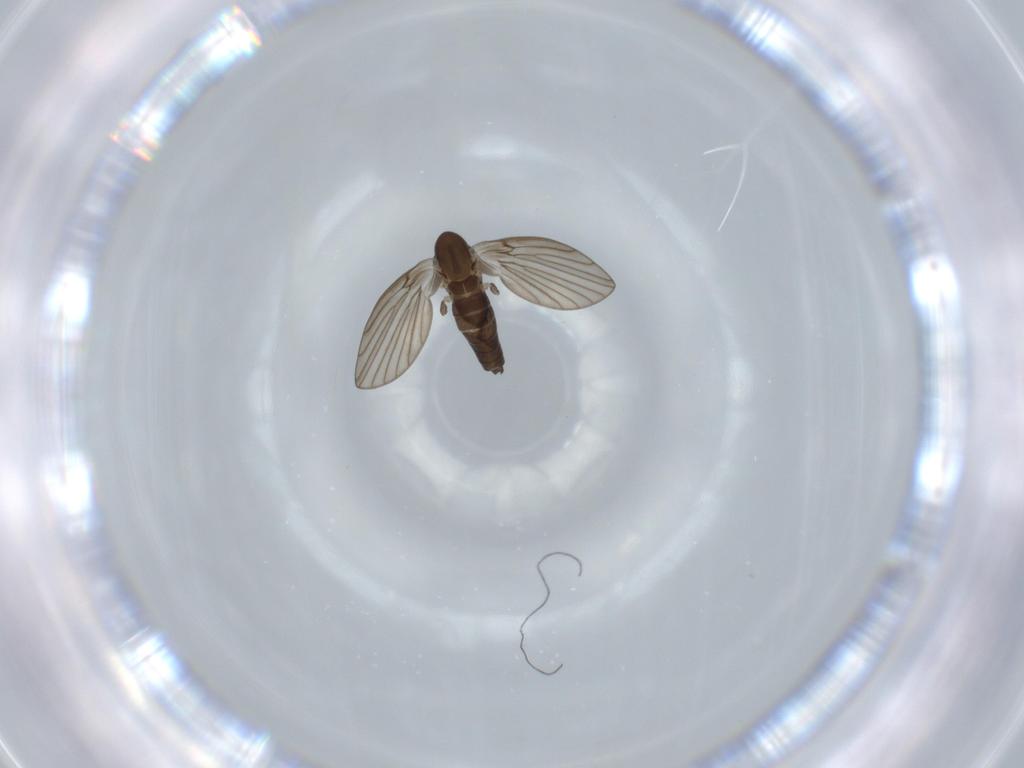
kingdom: Animalia
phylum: Arthropoda
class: Insecta
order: Diptera
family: Psychodidae
